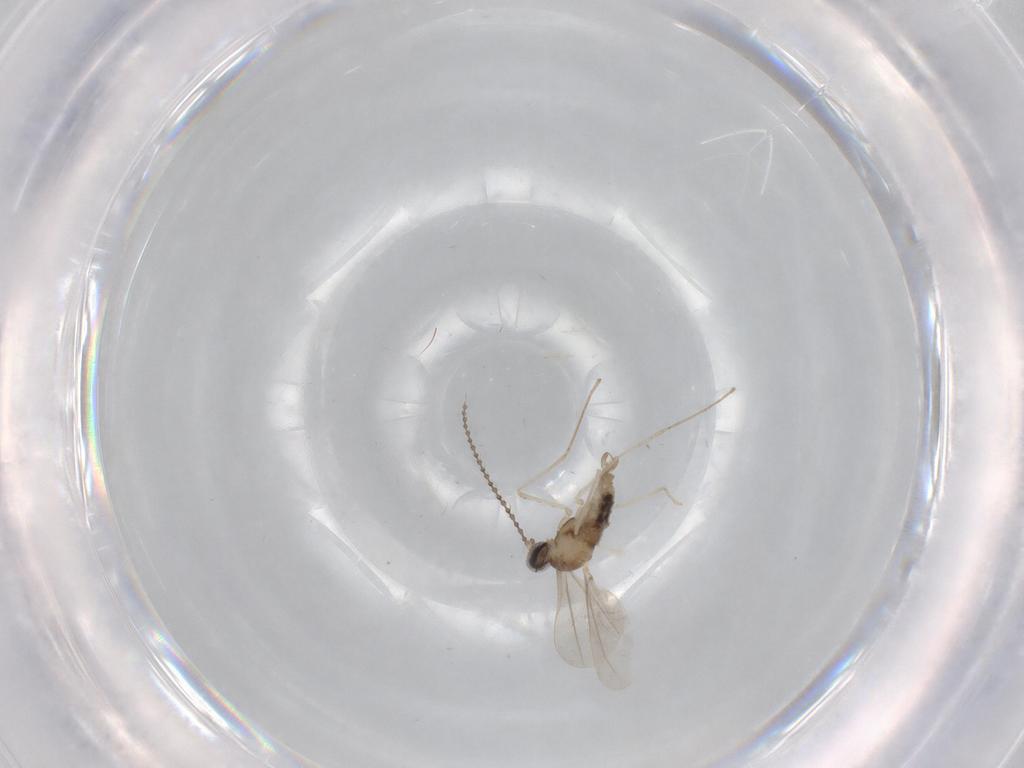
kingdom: Animalia
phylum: Arthropoda
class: Insecta
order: Diptera
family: Cecidomyiidae
